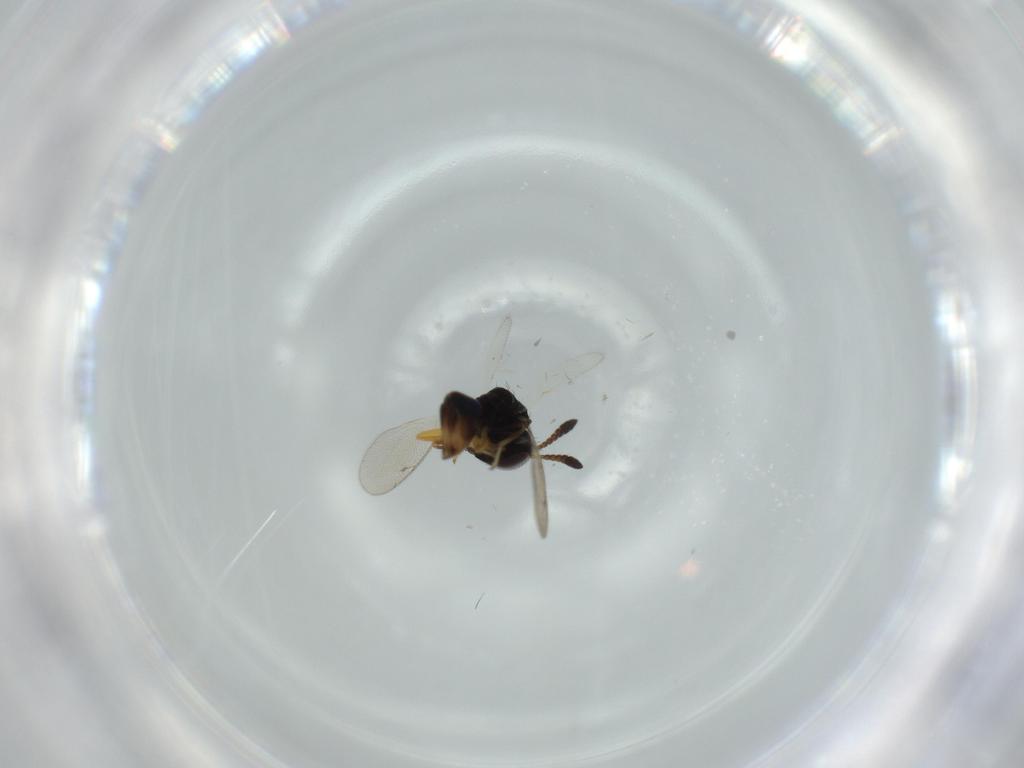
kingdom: Animalia
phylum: Arthropoda
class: Insecta
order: Hymenoptera
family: Pteromalidae
